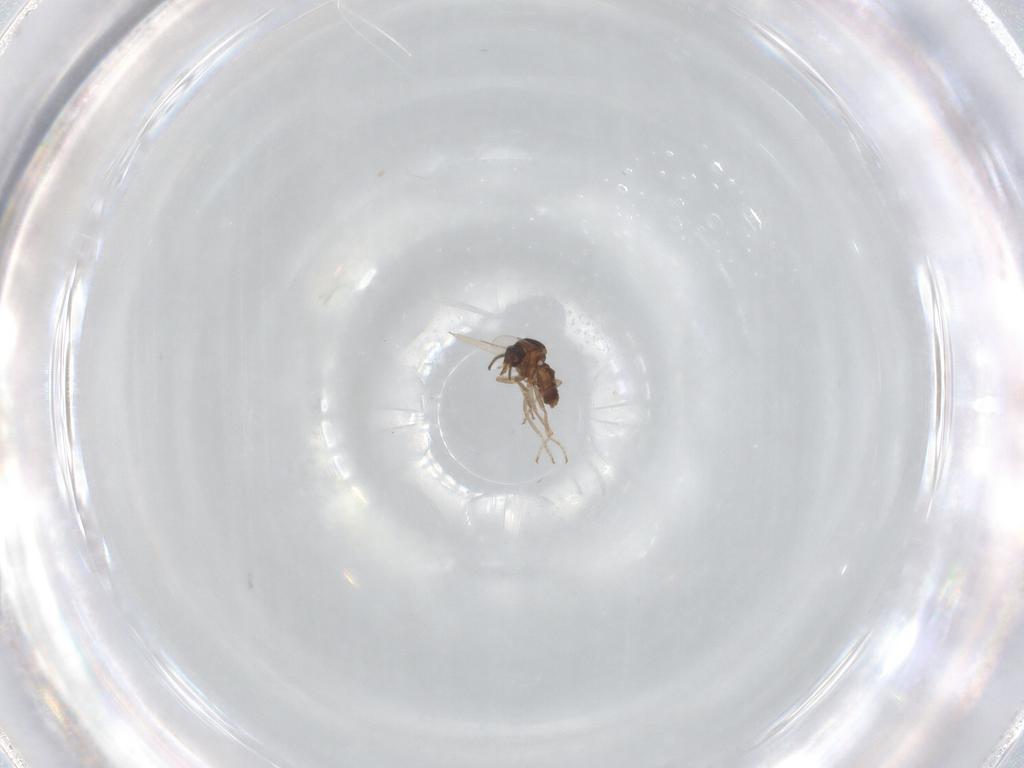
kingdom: Animalia
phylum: Arthropoda
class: Insecta
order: Diptera
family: Ceratopogonidae
